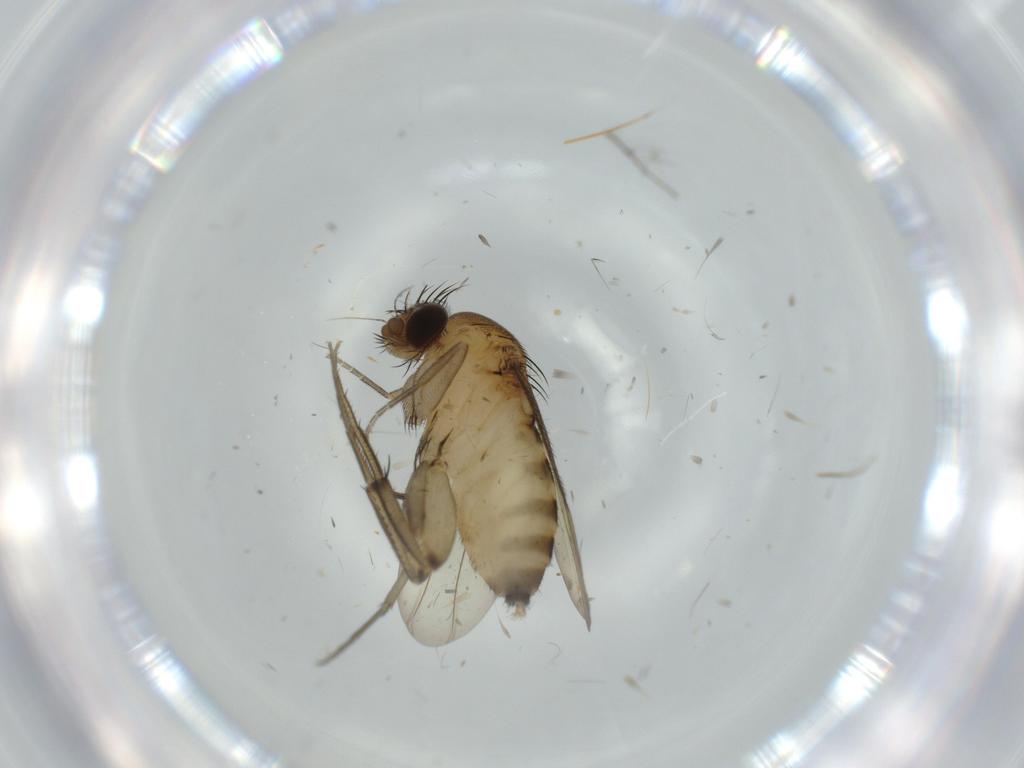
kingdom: Animalia
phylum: Arthropoda
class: Insecta
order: Diptera
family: Phoridae
